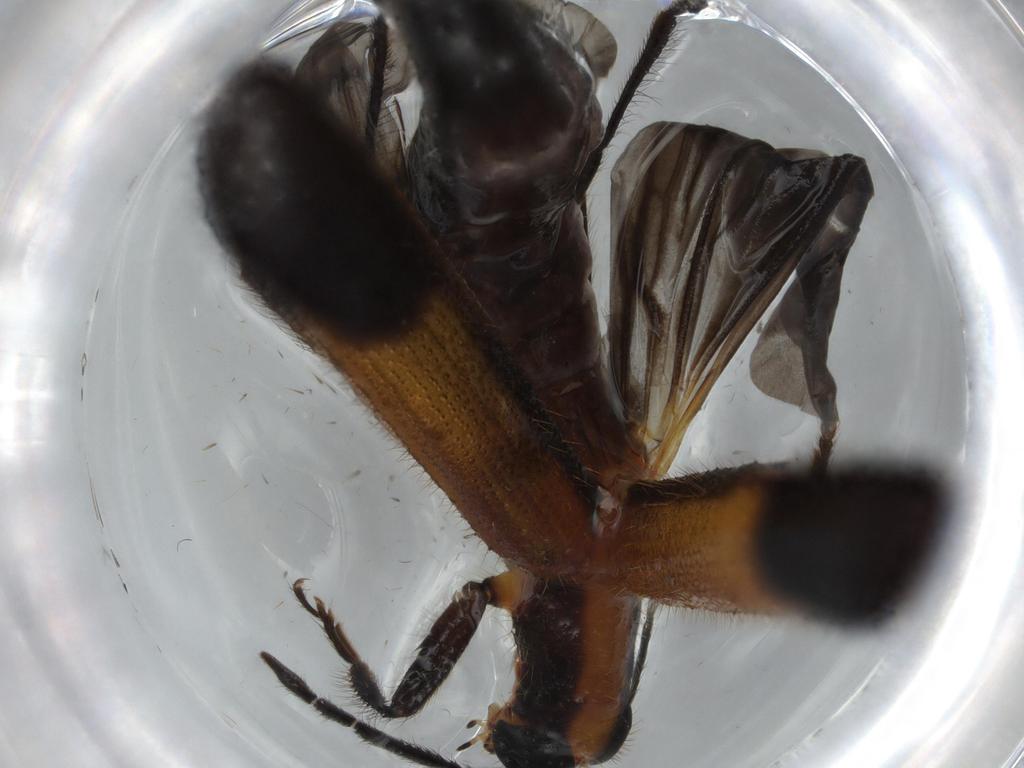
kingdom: Animalia
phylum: Arthropoda
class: Insecta
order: Coleoptera
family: Cleridae
